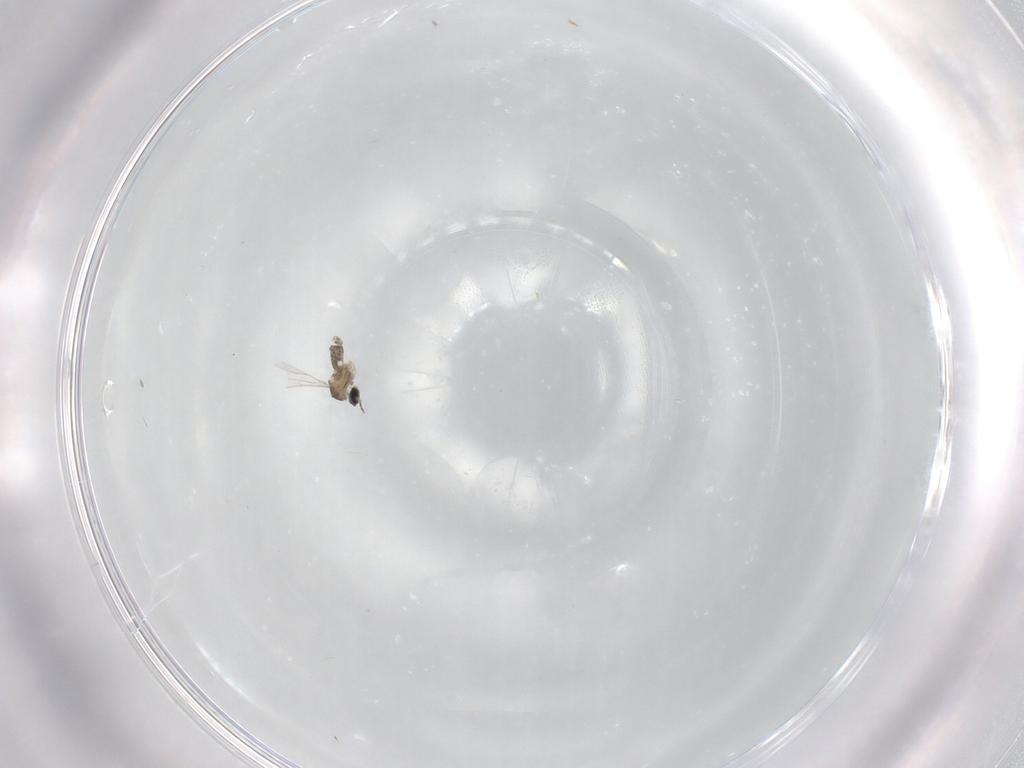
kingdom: Animalia
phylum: Arthropoda
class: Insecta
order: Diptera
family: Cecidomyiidae
